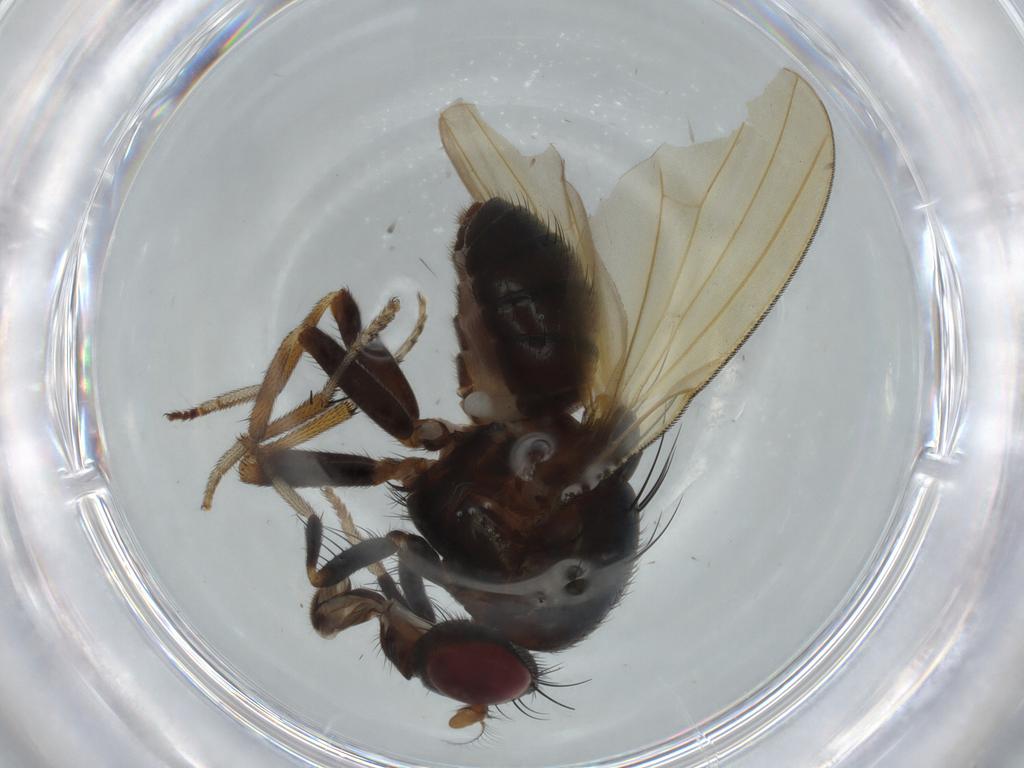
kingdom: Animalia
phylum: Arthropoda
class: Insecta
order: Diptera
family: Lauxaniidae
